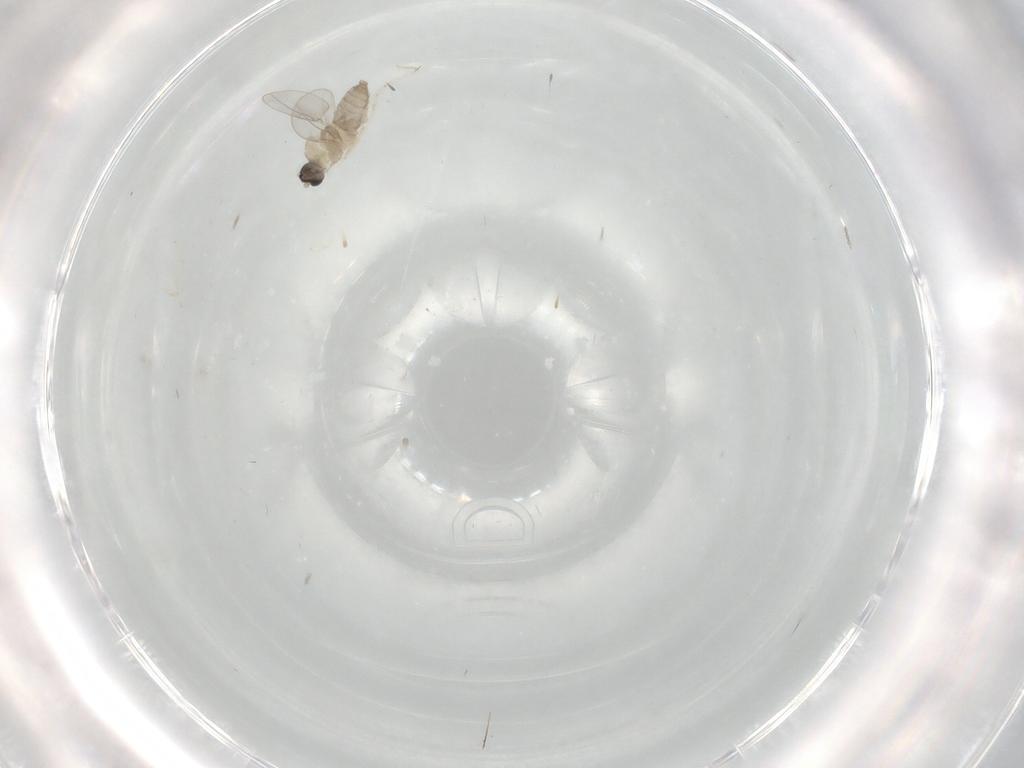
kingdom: Animalia
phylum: Arthropoda
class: Insecta
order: Diptera
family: Cecidomyiidae
